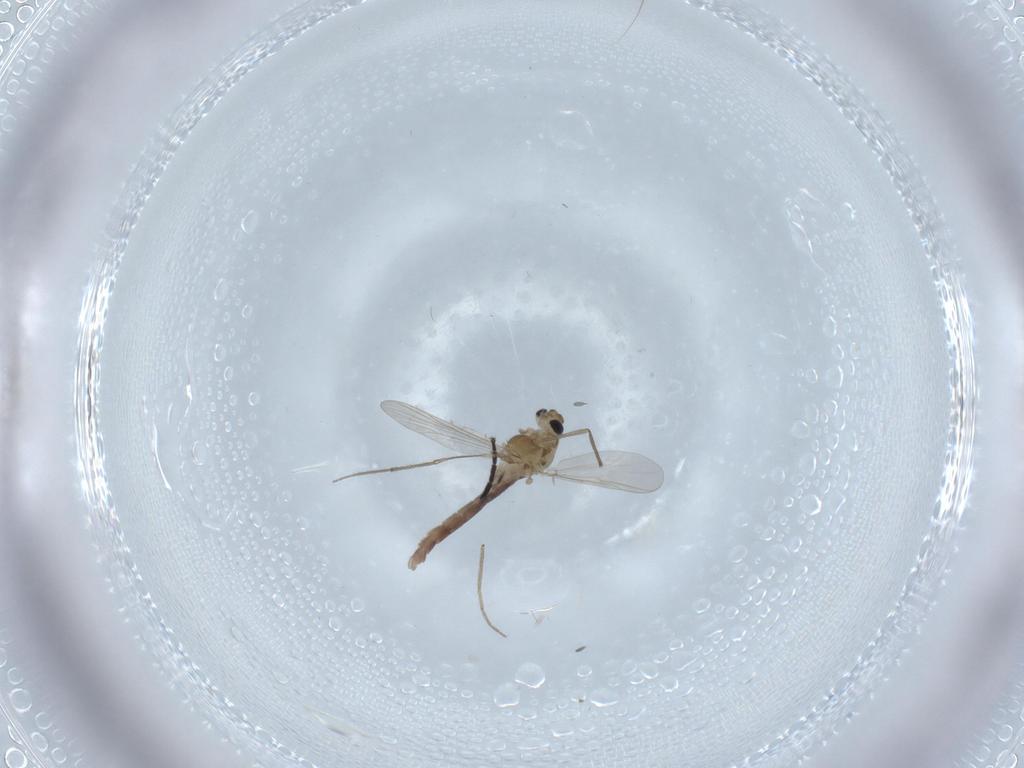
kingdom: Animalia
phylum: Arthropoda
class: Insecta
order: Diptera
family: Chironomidae
